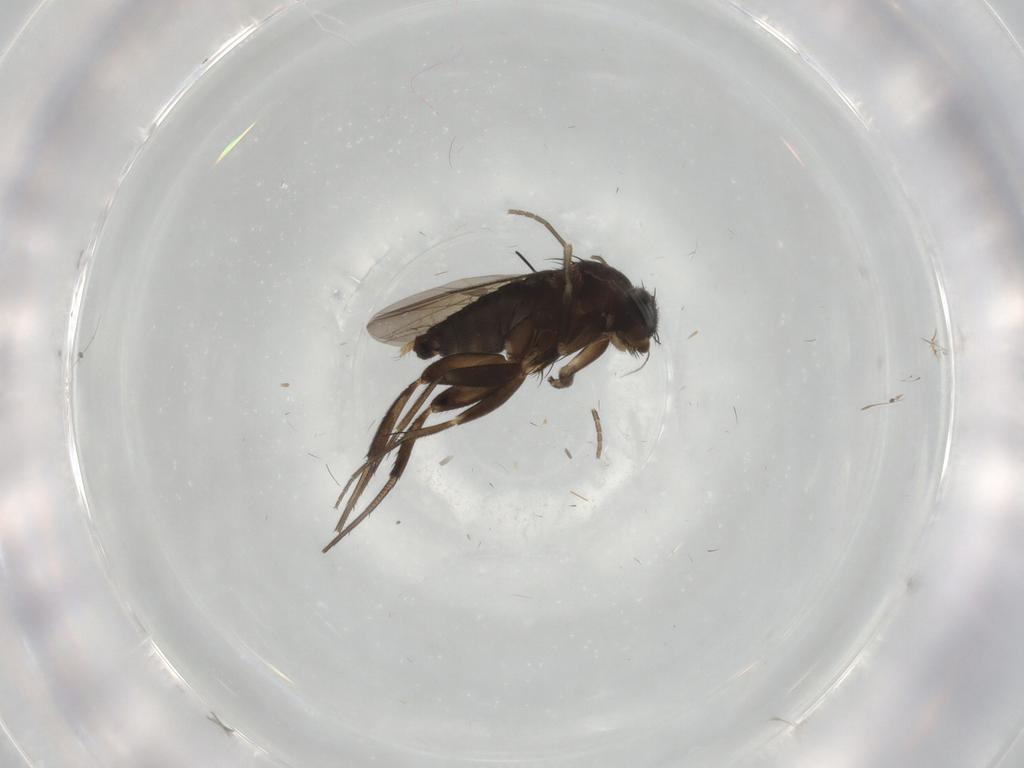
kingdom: Animalia
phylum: Arthropoda
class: Insecta
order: Diptera
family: Phoridae
